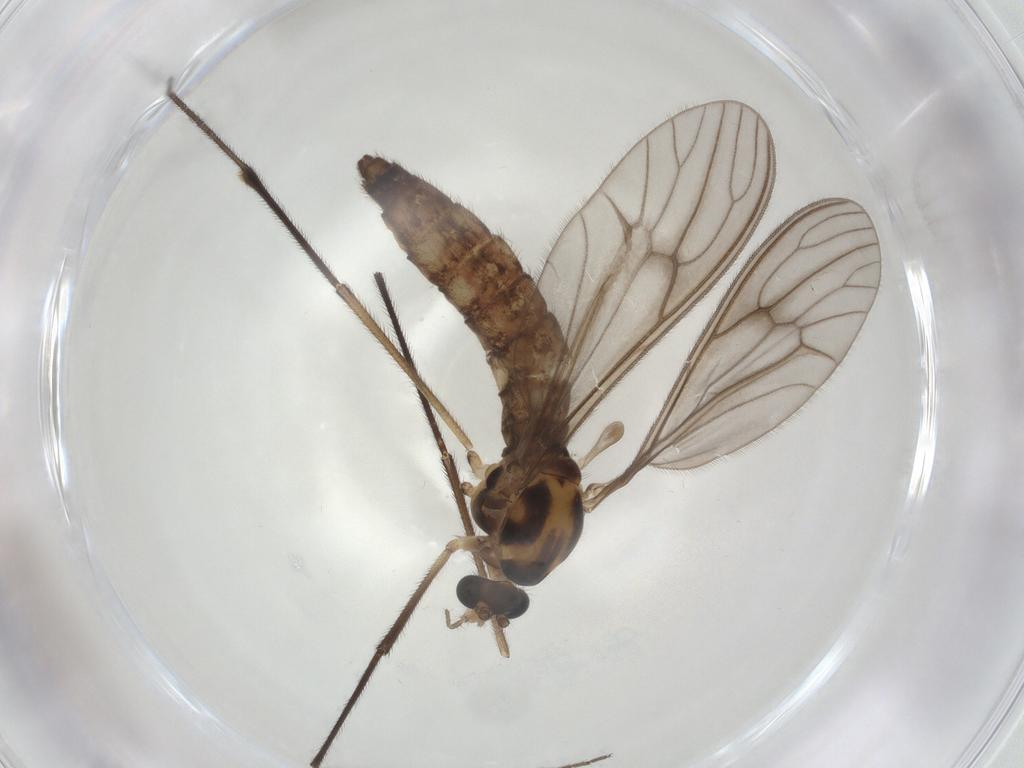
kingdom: Animalia
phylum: Arthropoda
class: Insecta
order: Diptera
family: Dixidae
